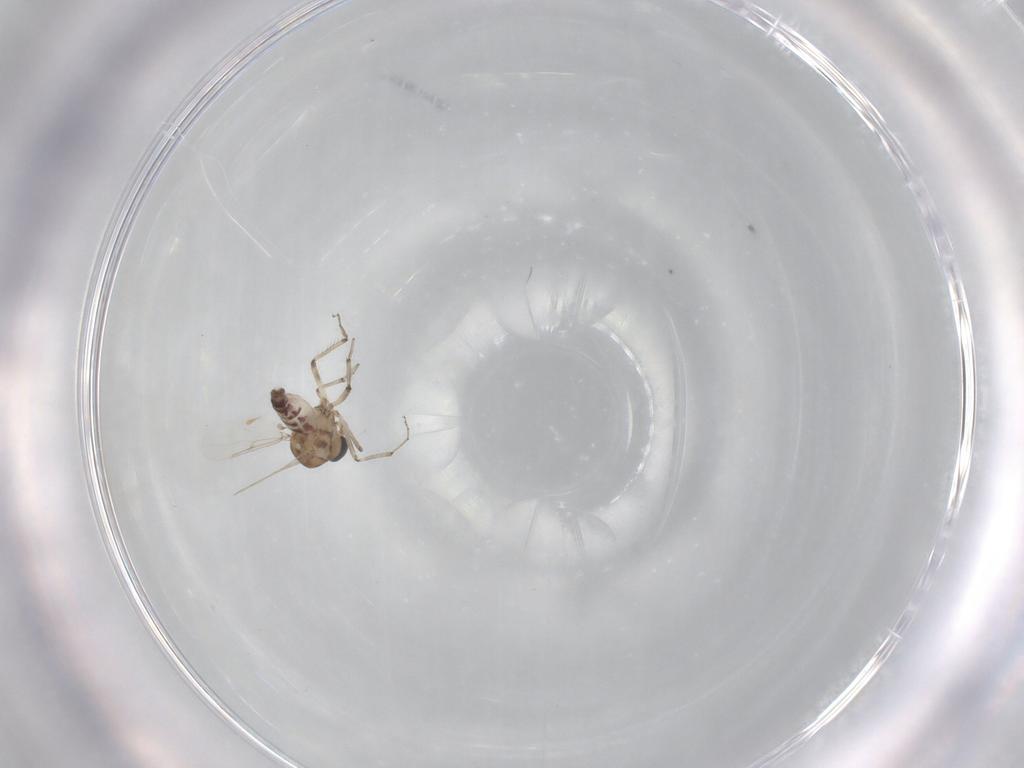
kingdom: Animalia
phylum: Arthropoda
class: Insecta
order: Diptera
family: Ceratopogonidae
